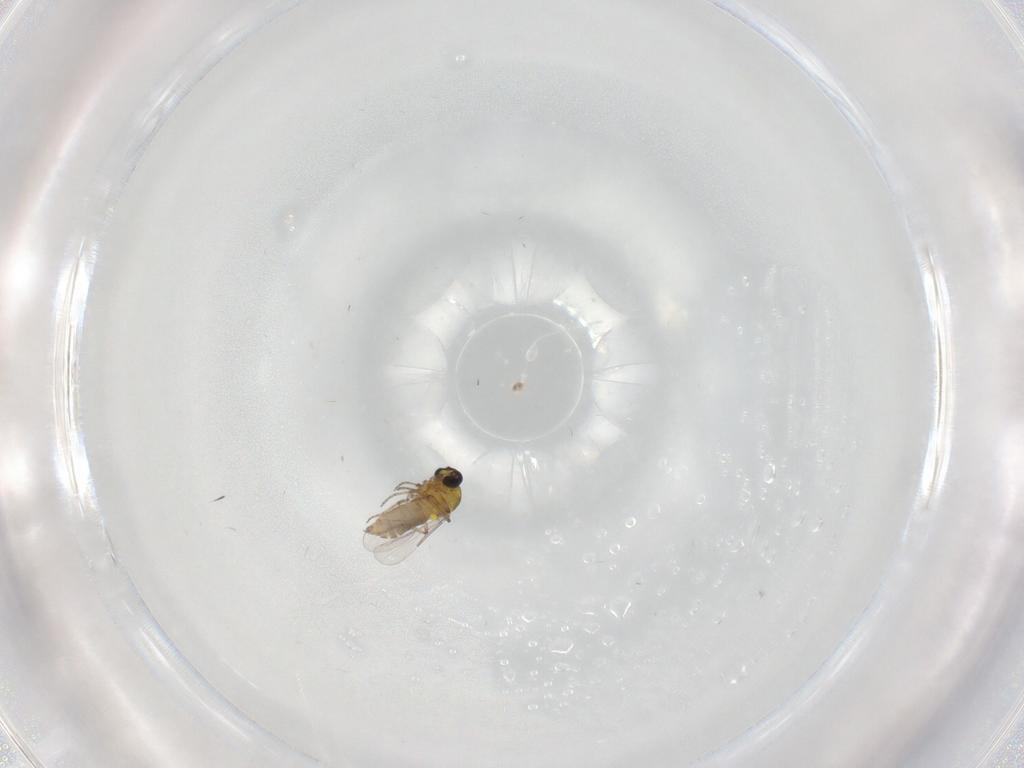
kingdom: Animalia
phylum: Arthropoda
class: Insecta
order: Diptera
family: Ceratopogonidae
